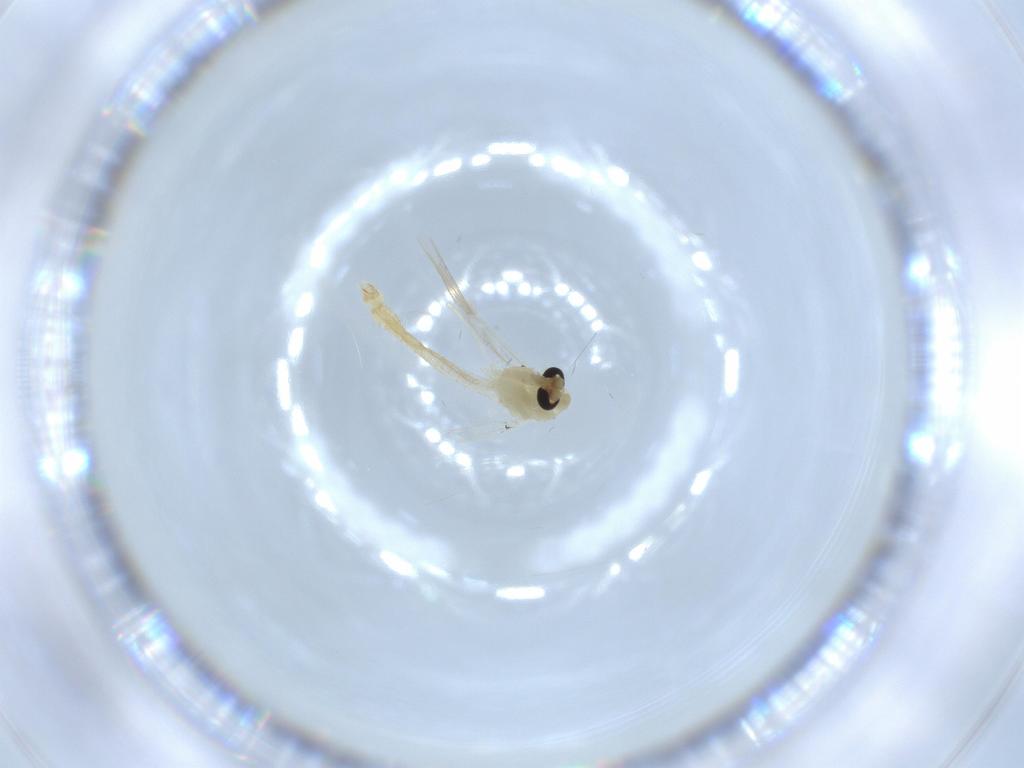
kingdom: Animalia
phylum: Arthropoda
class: Insecta
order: Diptera
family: Chironomidae
